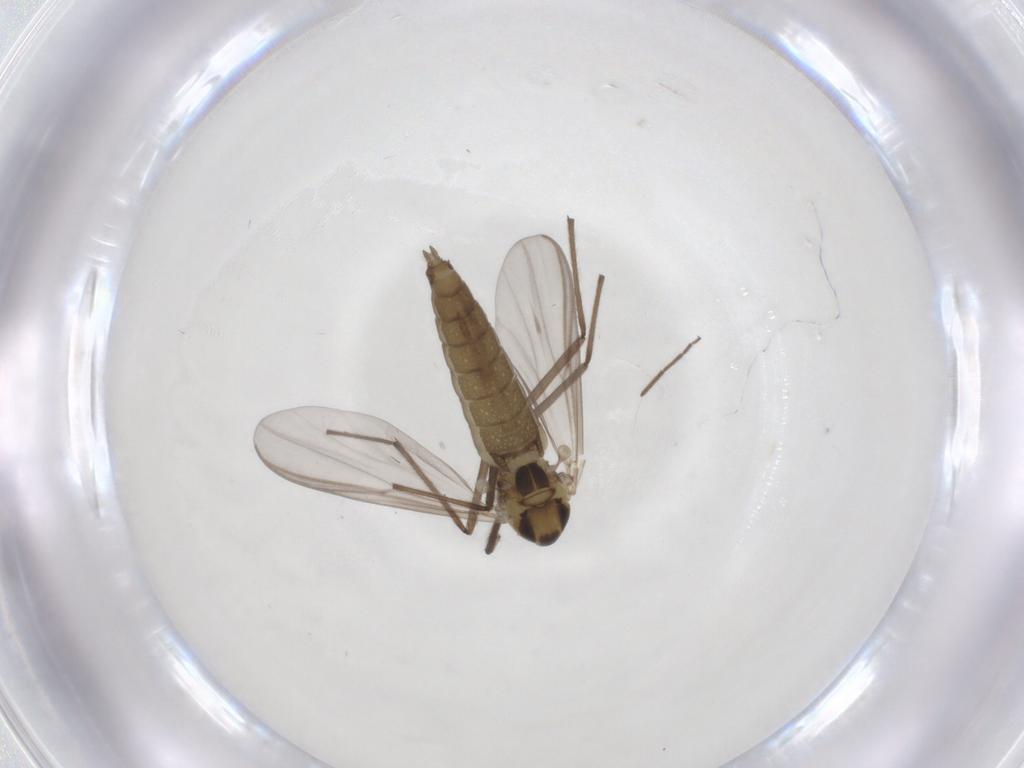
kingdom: Animalia
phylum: Arthropoda
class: Insecta
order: Diptera
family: Chironomidae
